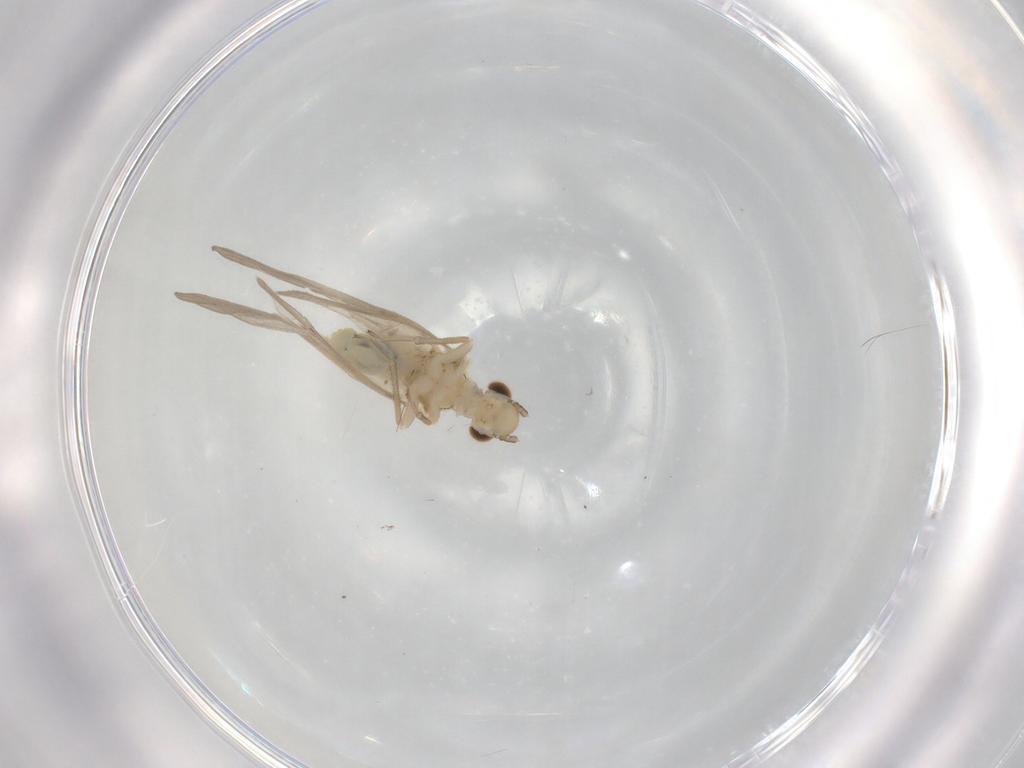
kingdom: Animalia
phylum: Arthropoda
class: Insecta
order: Psocodea
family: Caeciliusidae
